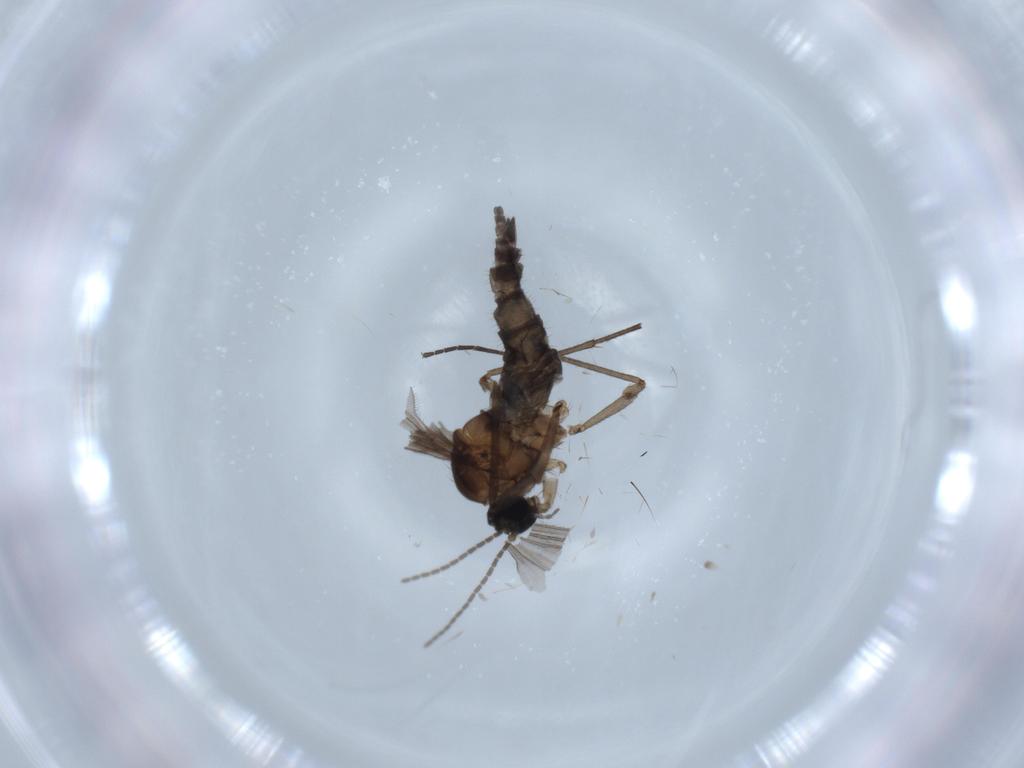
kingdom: Animalia
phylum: Arthropoda
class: Insecta
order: Diptera
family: Sciaridae
